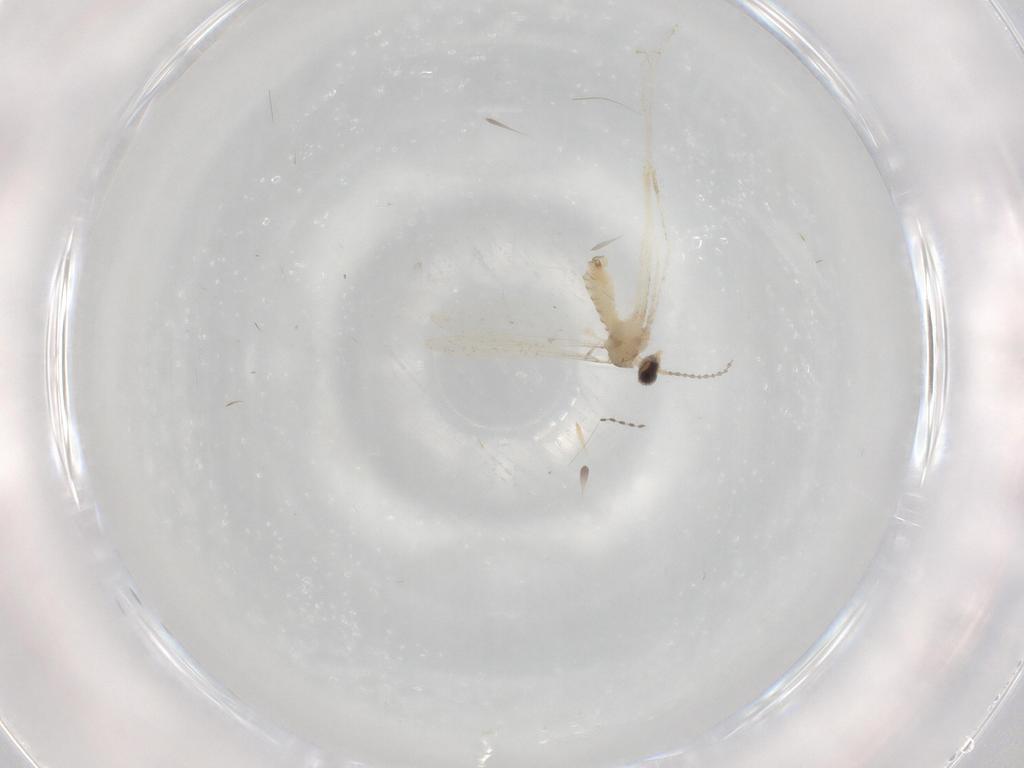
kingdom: Animalia
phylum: Arthropoda
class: Insecta
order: Diptera
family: Cecidomyiidae
